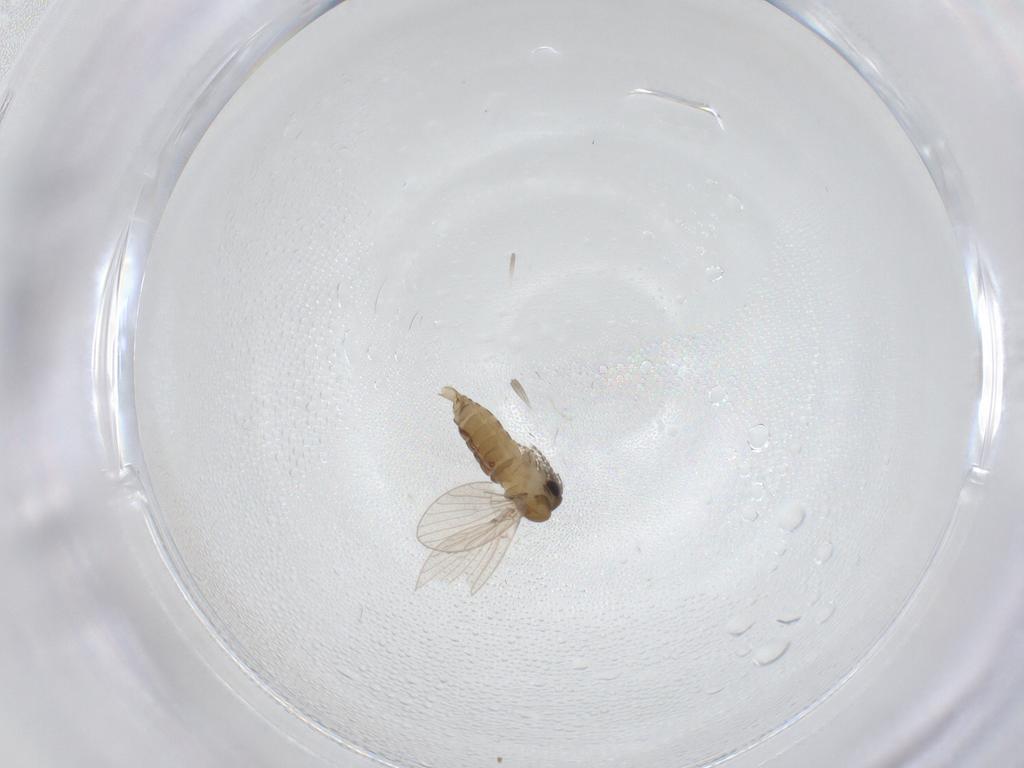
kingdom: Animalia
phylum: Arthropoda
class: Insecta
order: Diptera
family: Psychodidae
